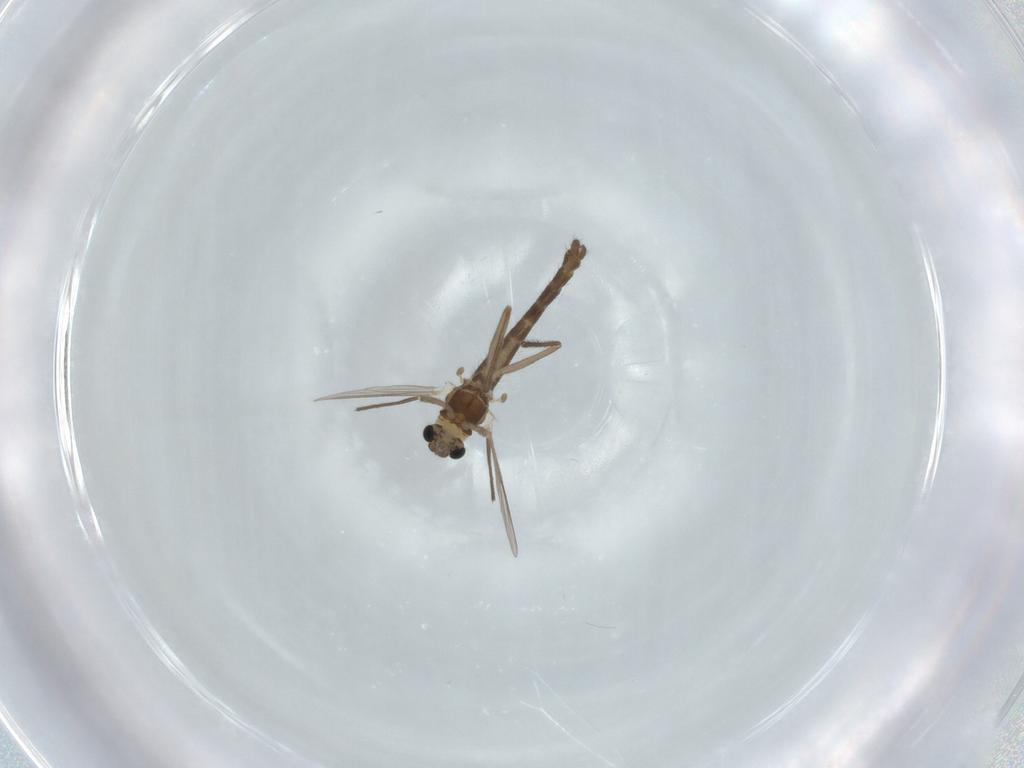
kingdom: Animalia
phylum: Arthropoda
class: Insecta
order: Diptera
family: Chironomidae
